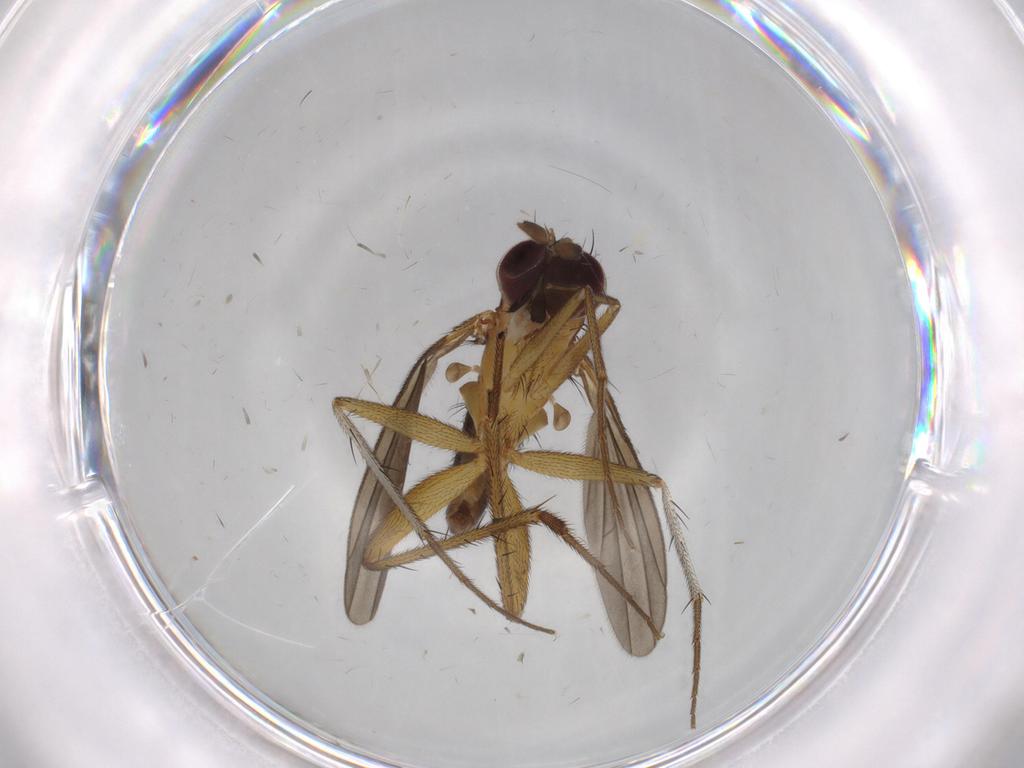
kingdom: Animalia
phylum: Arthropoda
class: Insecta
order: Diptera
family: Dolichopodidae
